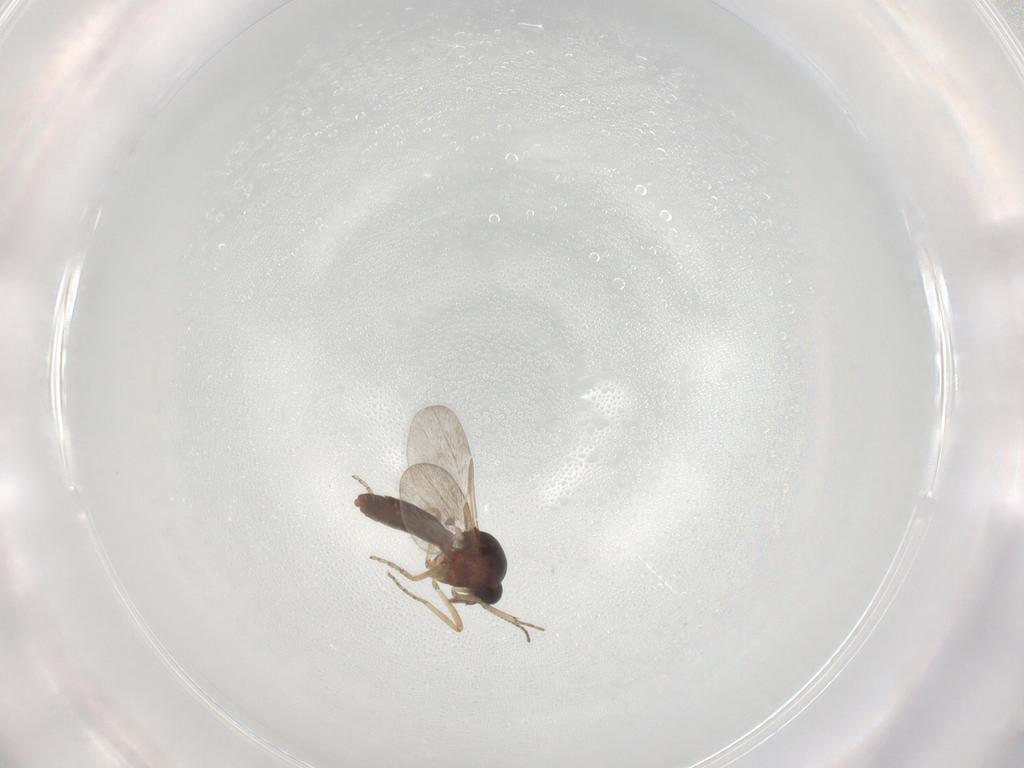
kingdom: Animalia
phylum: Arthropoda
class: Insecta
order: Diptera
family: Ceratopogonidae
